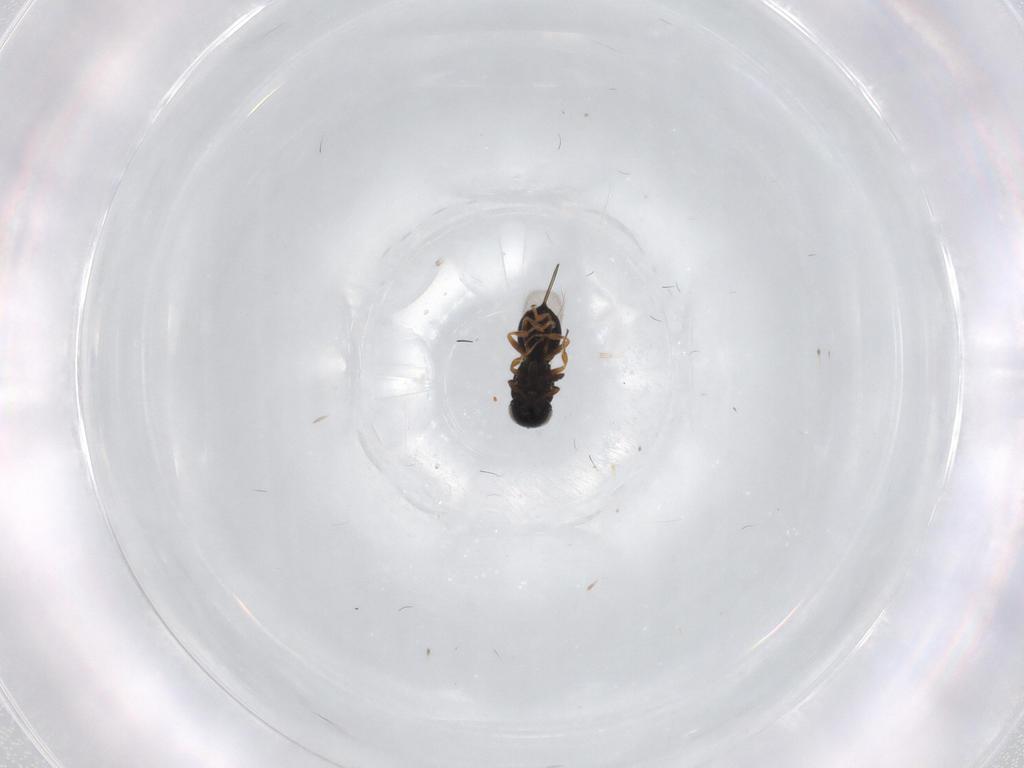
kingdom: Animalia
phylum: Arthropoda
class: Insecta
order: Hymenoptera
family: Scelionidae
